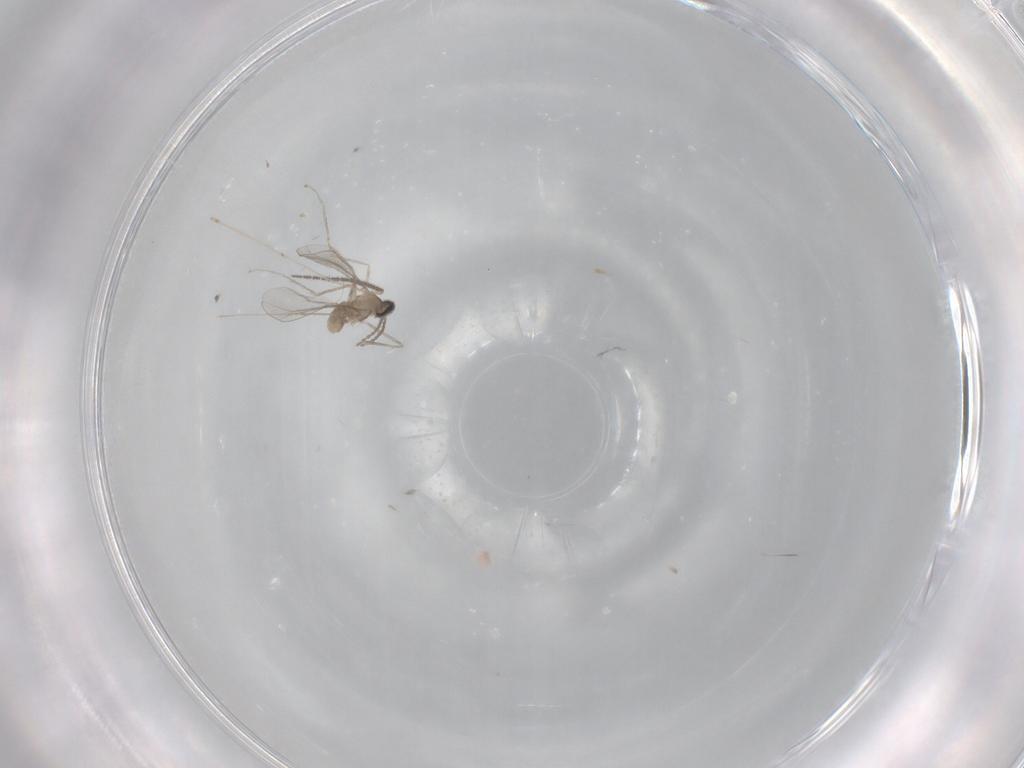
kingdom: Animalia
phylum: Arthropoda
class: Insecta
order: Diptera
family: Sciaridae
